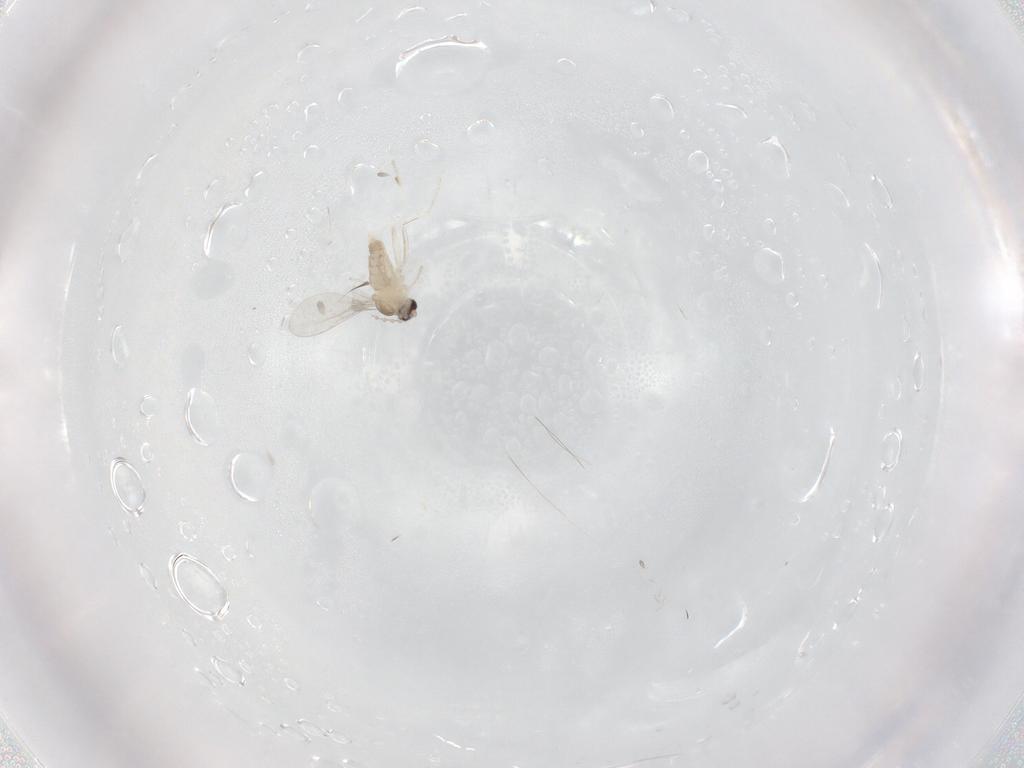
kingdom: Animalia
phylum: Arthropoda
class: Insecta
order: Diptera
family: Cecidomyiidae
